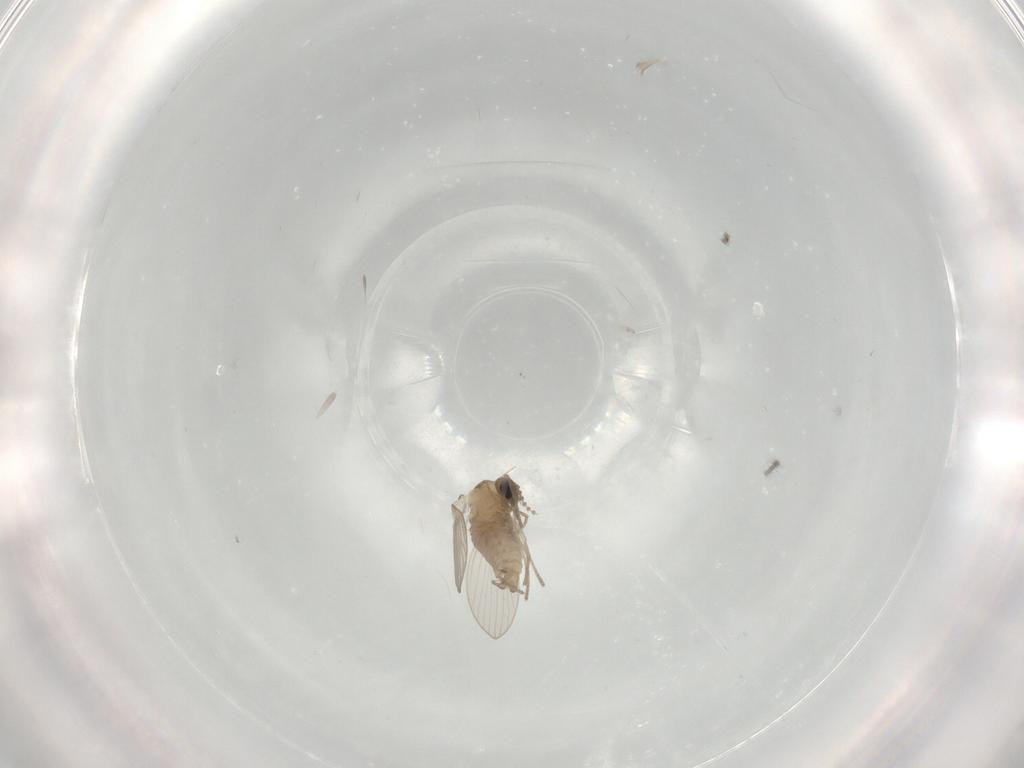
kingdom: Animalia
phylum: Arthropoda
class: Insecta
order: Diptera
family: Psychodidae
